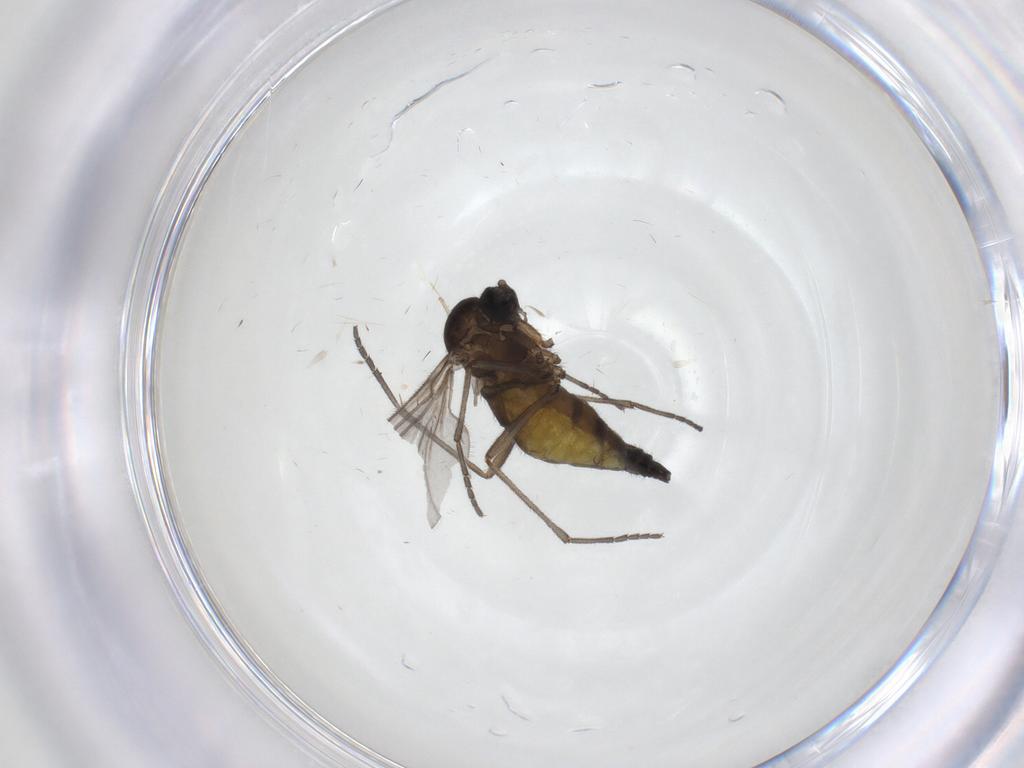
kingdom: Animalia
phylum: Arthropoda
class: Insecta
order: Diptera
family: Sciaridae
